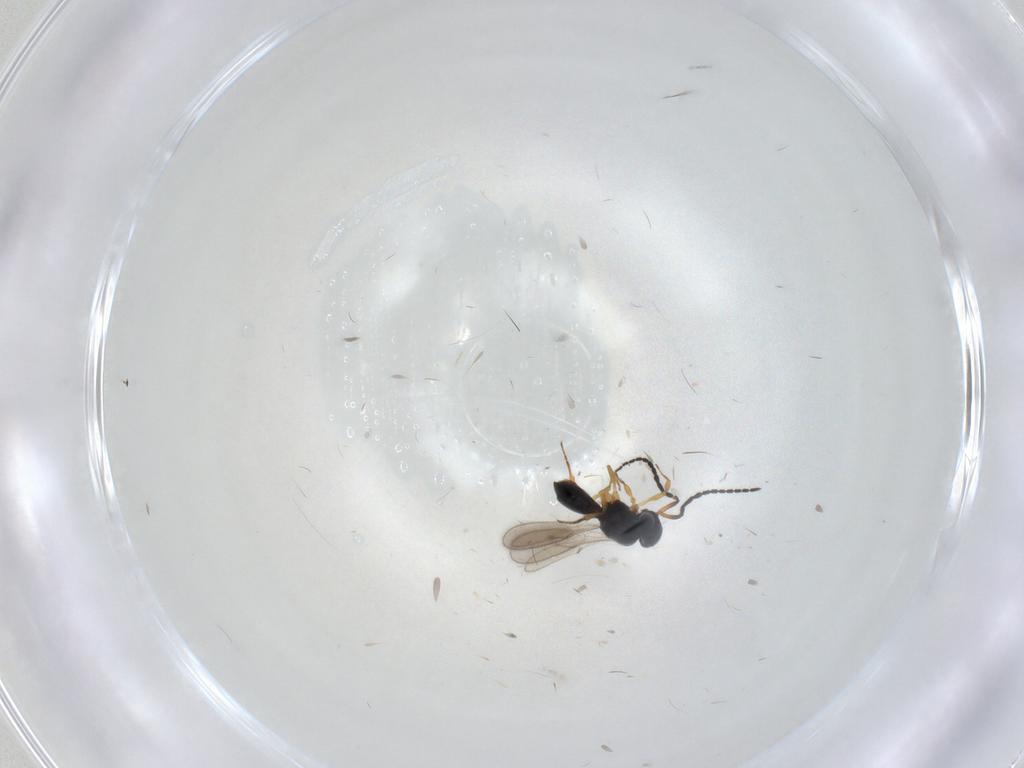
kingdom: Animalia
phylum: Arthropoda
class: Insecta
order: Hymenoptera
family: Scelionidae
